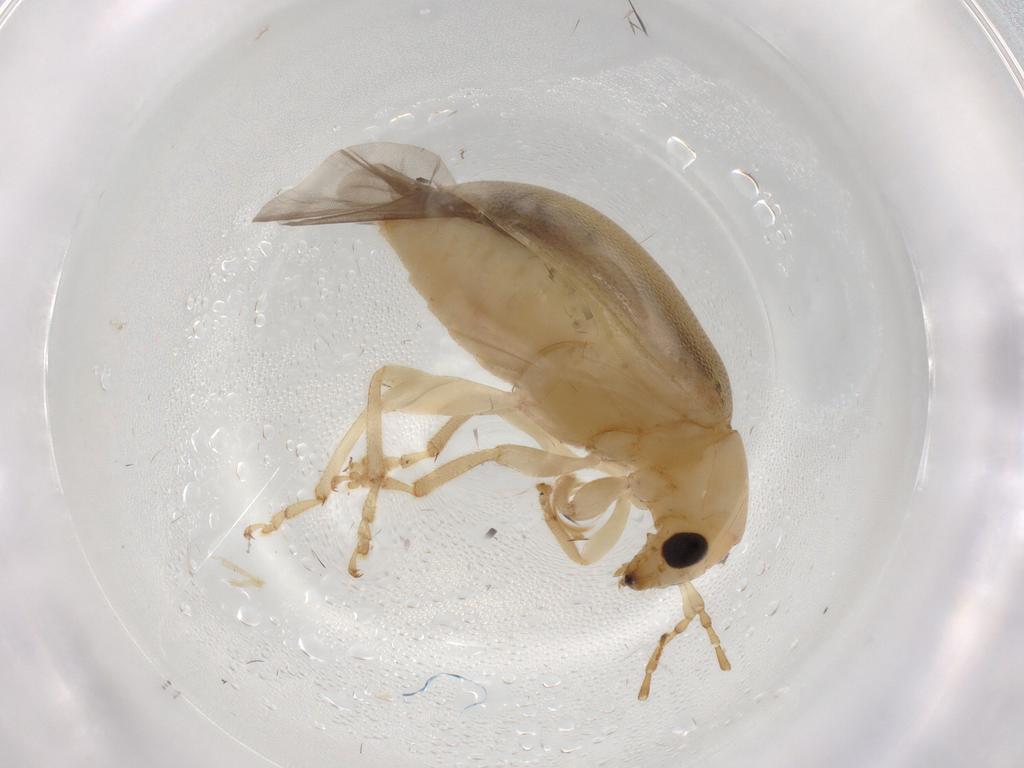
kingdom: Animalia
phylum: Arthropoda
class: Insecta
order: Coleoptera
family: Chrysomelidae
